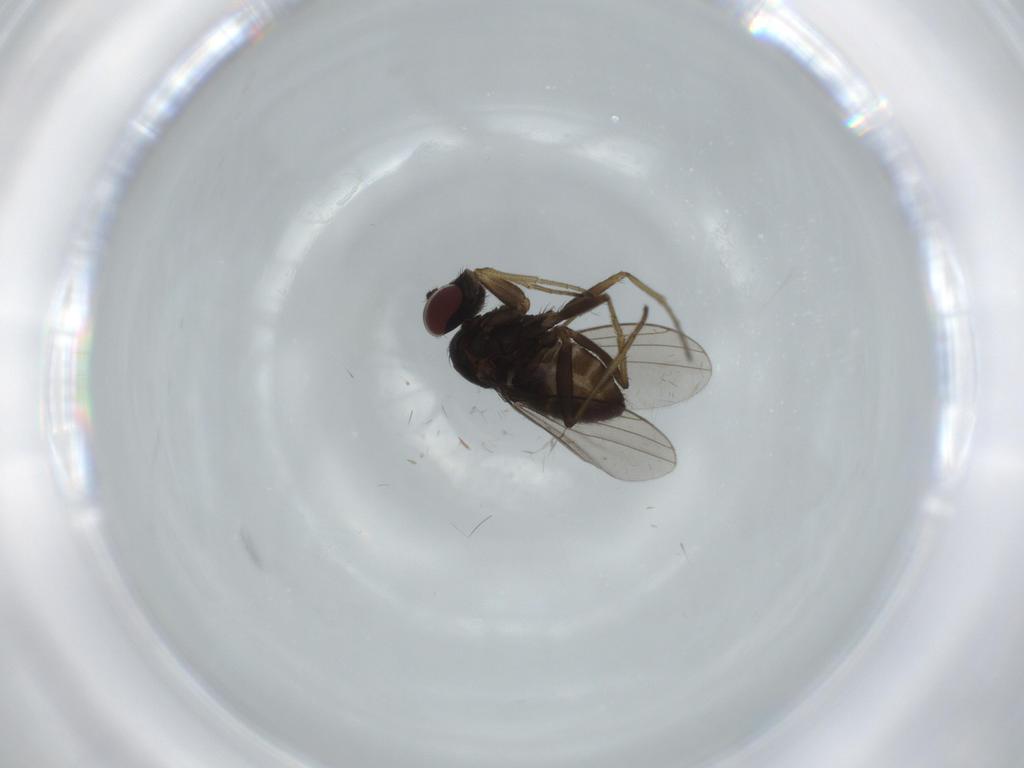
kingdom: Animalia
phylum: Arthropoda
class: Insecta
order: Diptera
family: Dolichopodidae
